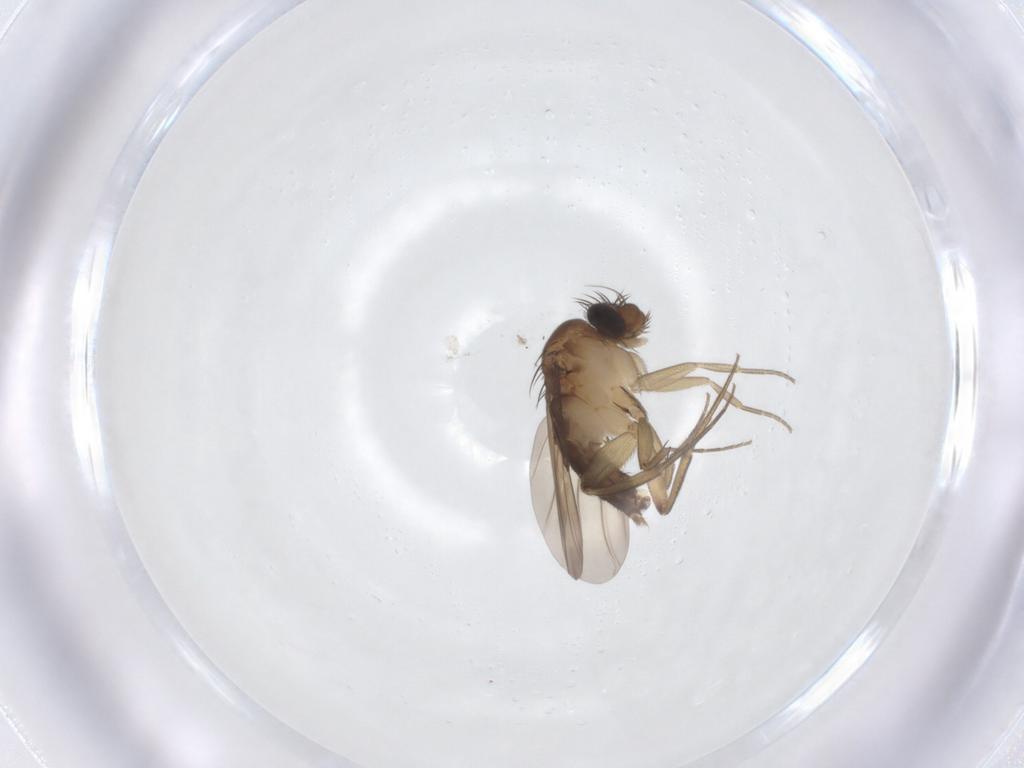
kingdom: Animalia
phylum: Arthropoda
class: Insecta
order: Diptera
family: Phoridae
